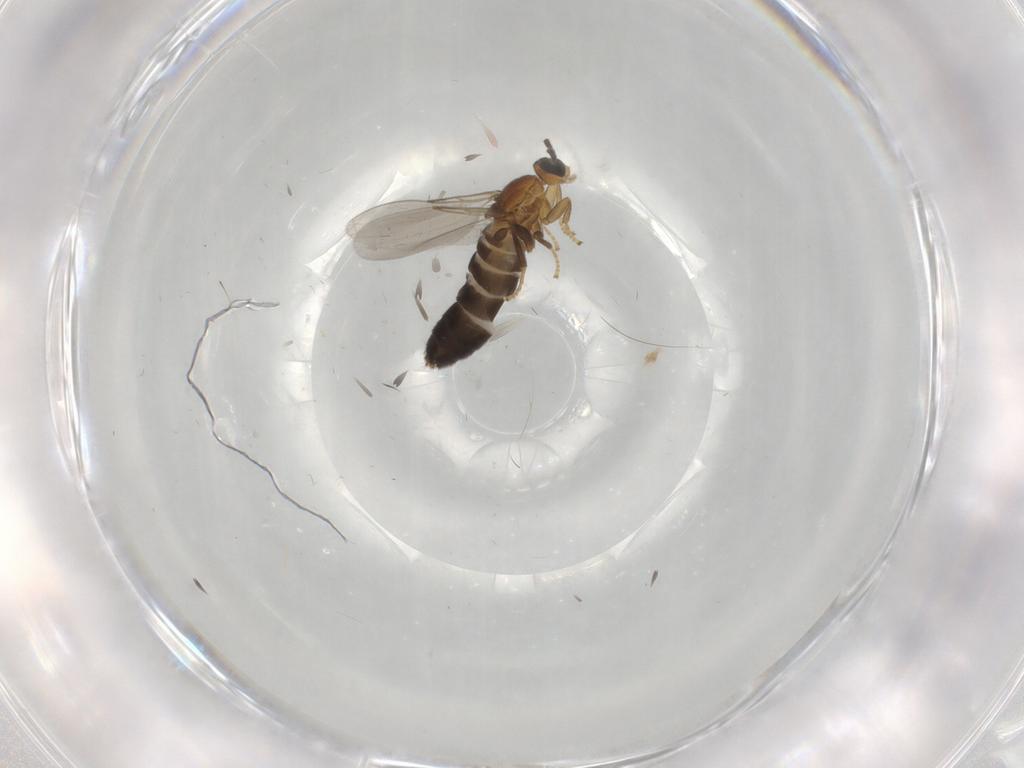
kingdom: Animalia
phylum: Arthropoda
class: Insecta
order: Diptera
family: Scatopsidae
